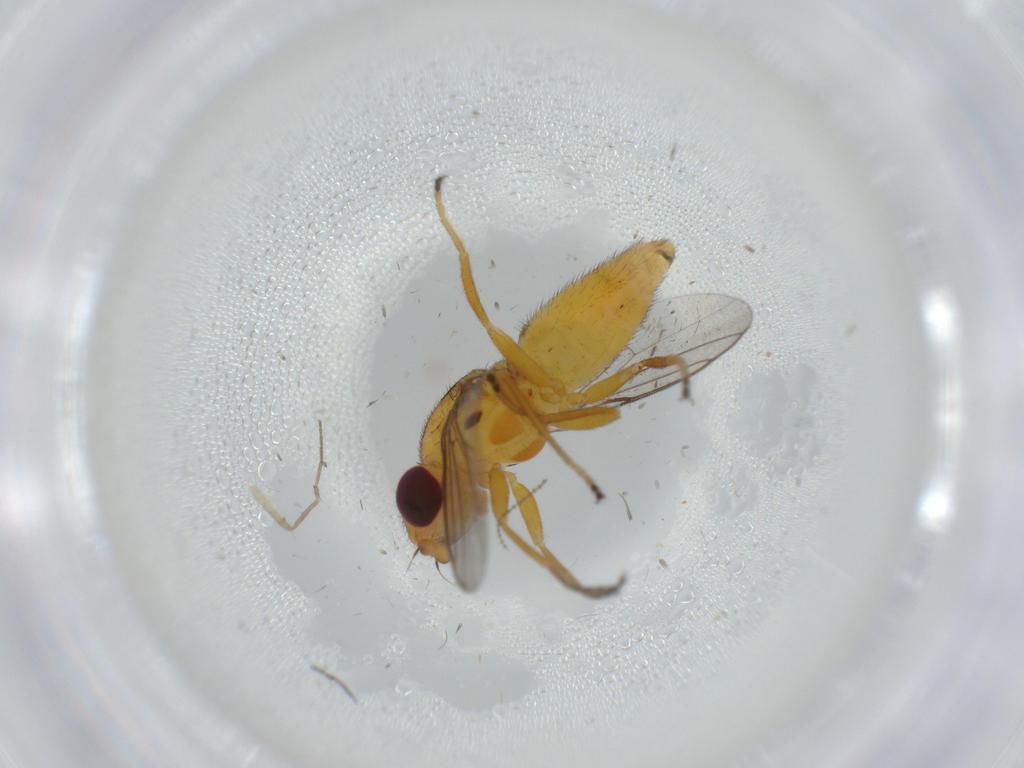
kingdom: Animalia
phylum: Arthropoda
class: Insecta
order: Diptera
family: Chloropidae
